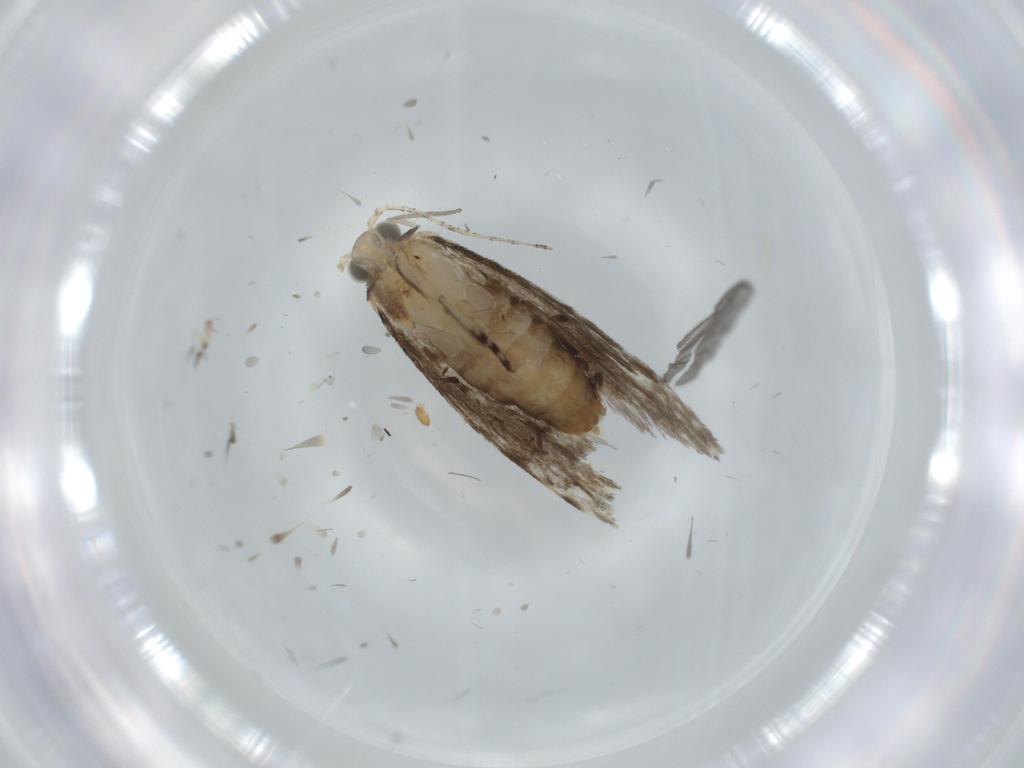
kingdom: Animalia
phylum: Arthropoda
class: Insecta
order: Lepidoptera
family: Tineidae
